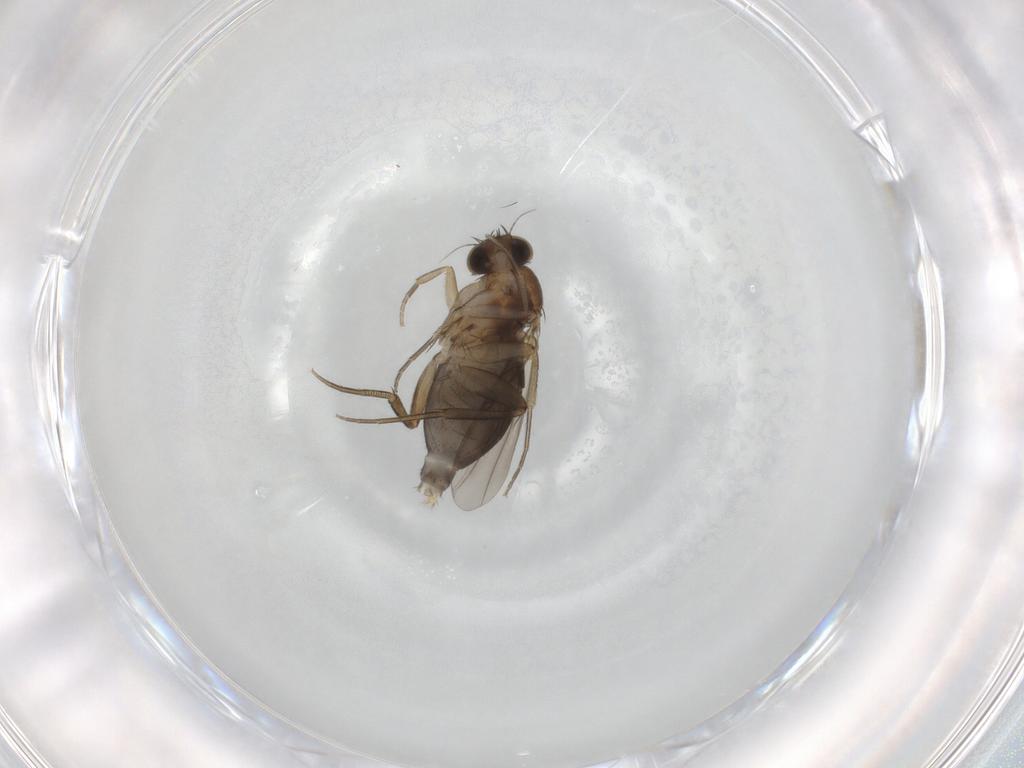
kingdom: Animalia
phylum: Arthropoda
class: Insecta
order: Diptera
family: Phoridae
